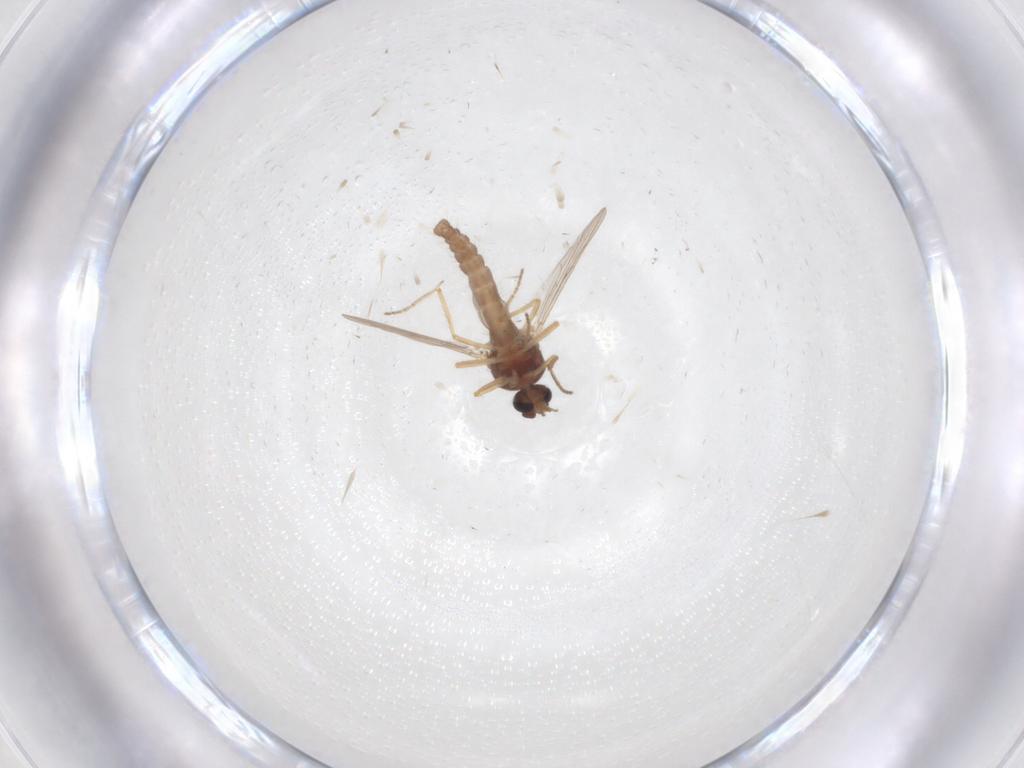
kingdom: Animalia
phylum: Arthropoda
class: Insecta
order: Diptera
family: Ceratopogonidae
